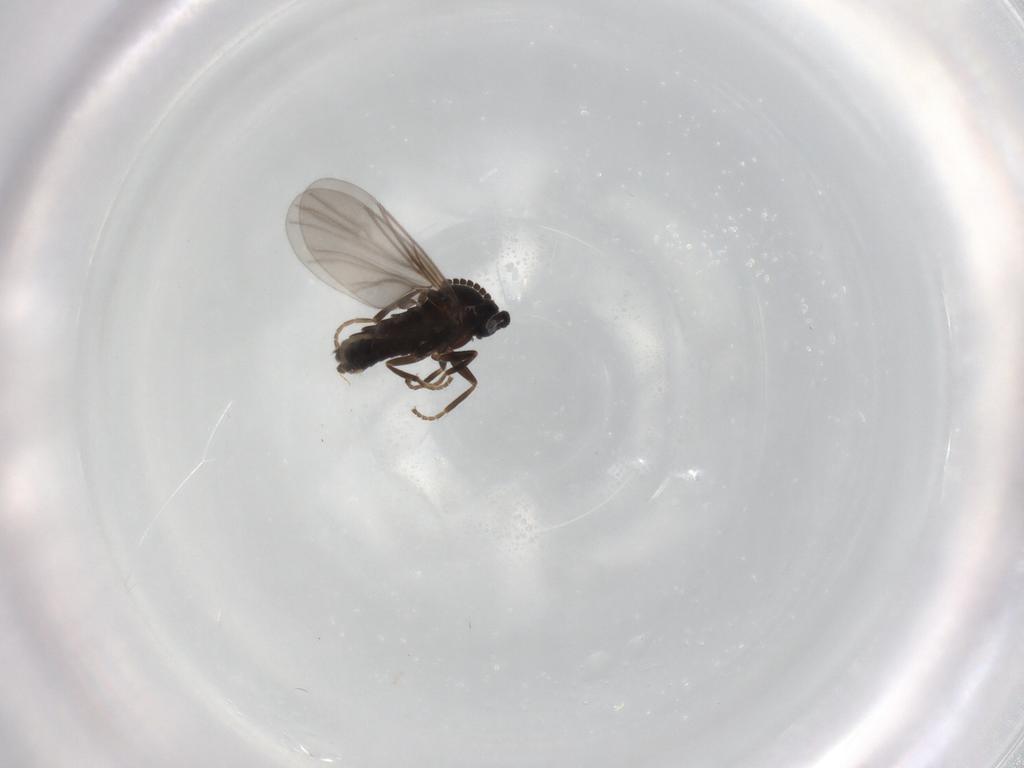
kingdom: Animalia
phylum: Arthropoda
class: Insecta
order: Diptera
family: Scatopsidae
